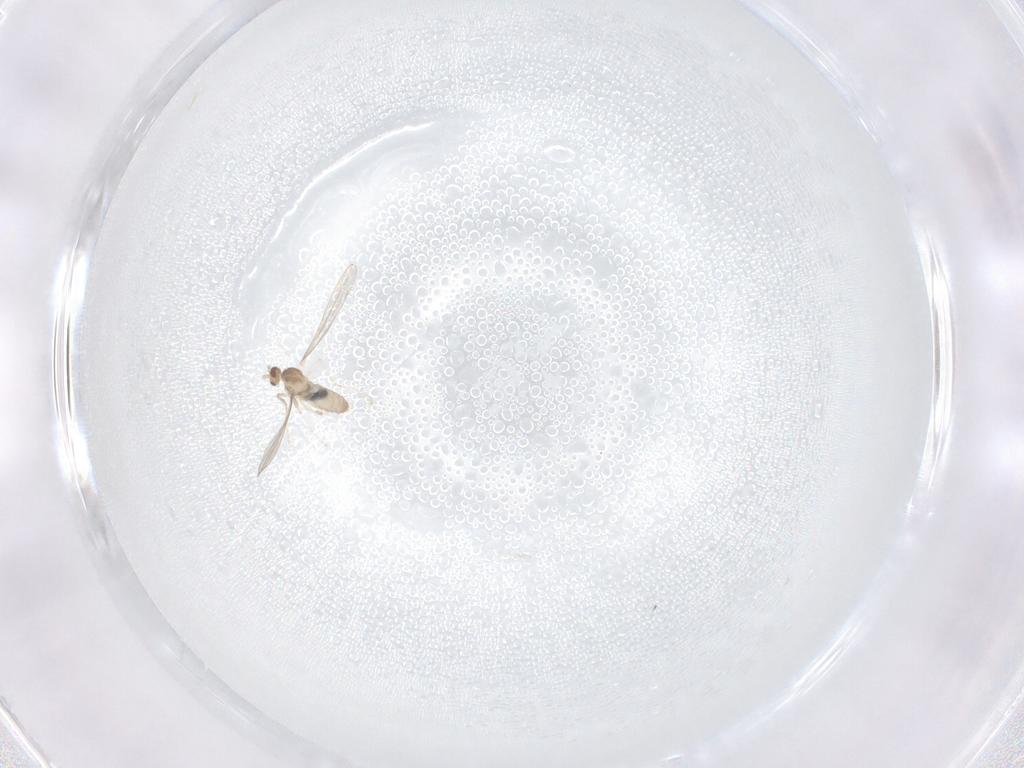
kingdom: Animalia
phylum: Arthropoda
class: Insecta
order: Diptera
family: Cecidomyiidae
